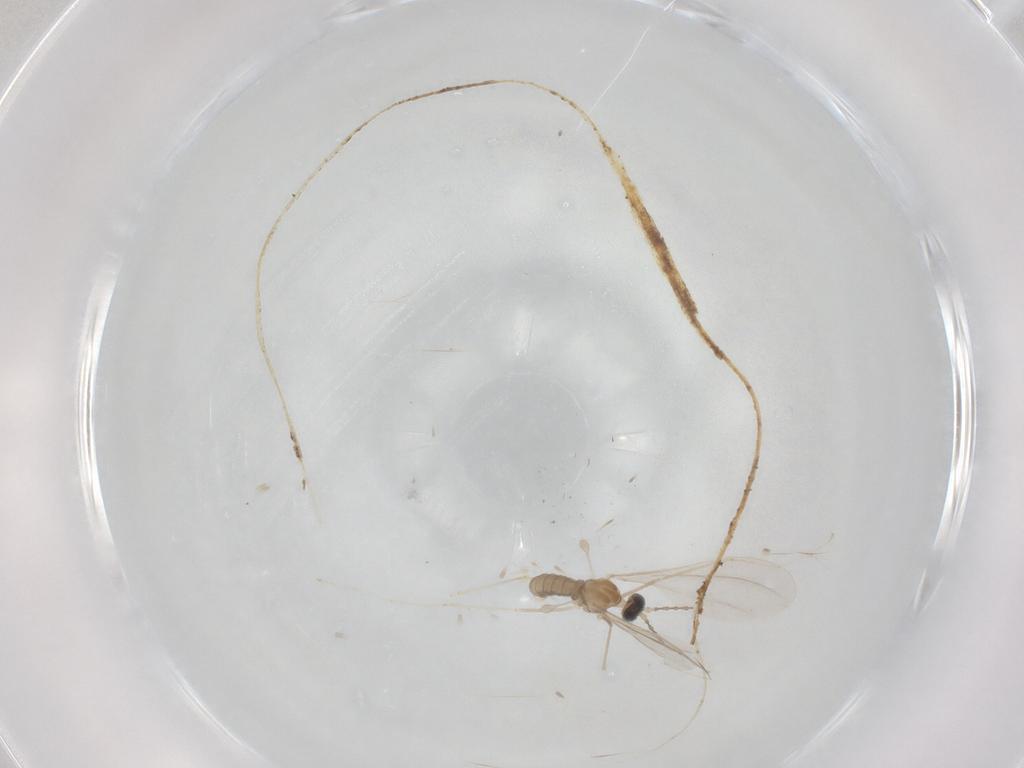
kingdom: Animalia
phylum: Arthropoda
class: Insecta
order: Diptera
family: Cecidomyiidae
